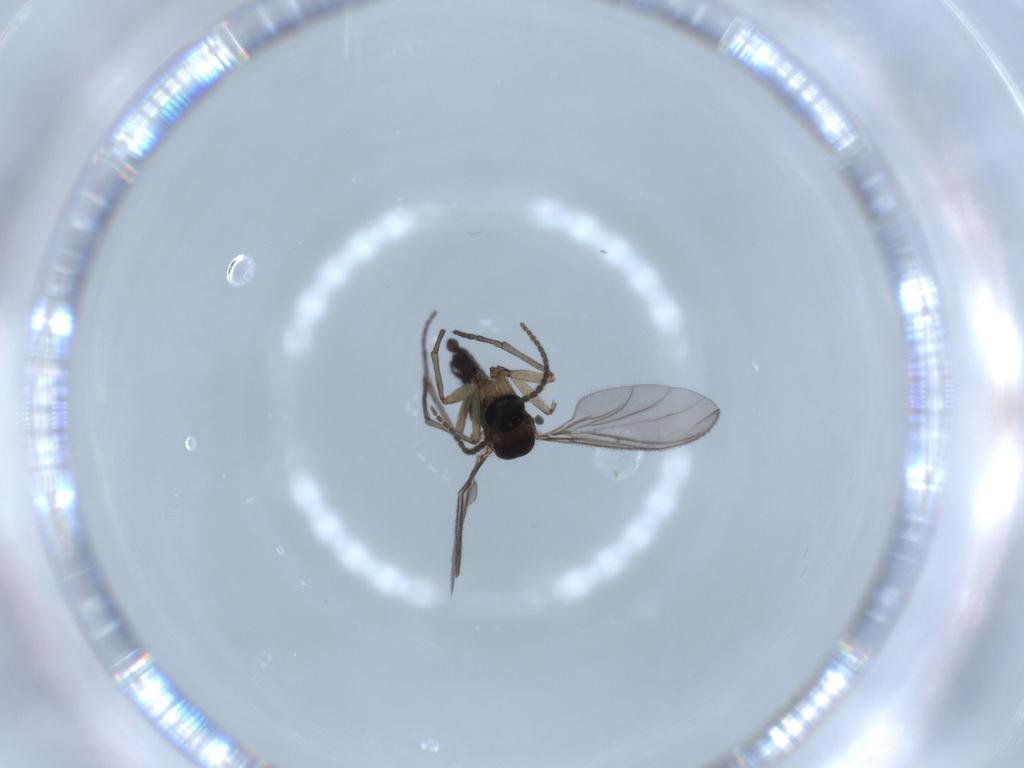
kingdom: Animalia
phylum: Arthropoda
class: Insecta
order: Diptera
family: Sciaridae
